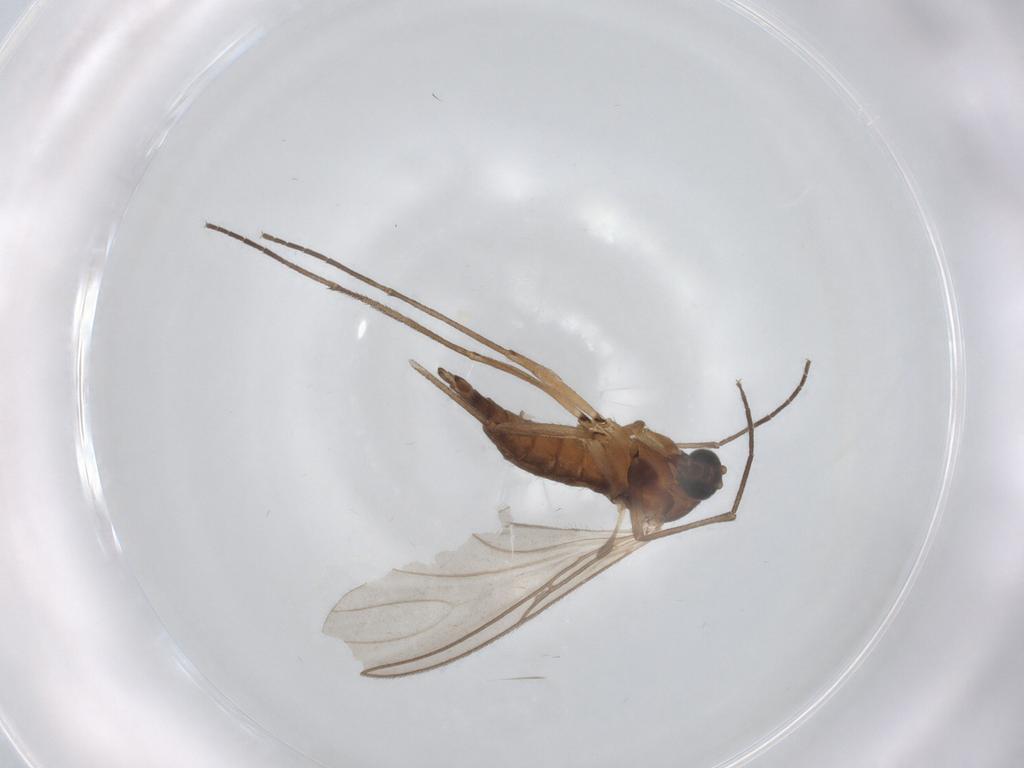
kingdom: Animalia
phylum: Arthropoda
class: Insecta
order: Diptera
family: Sciaridae
